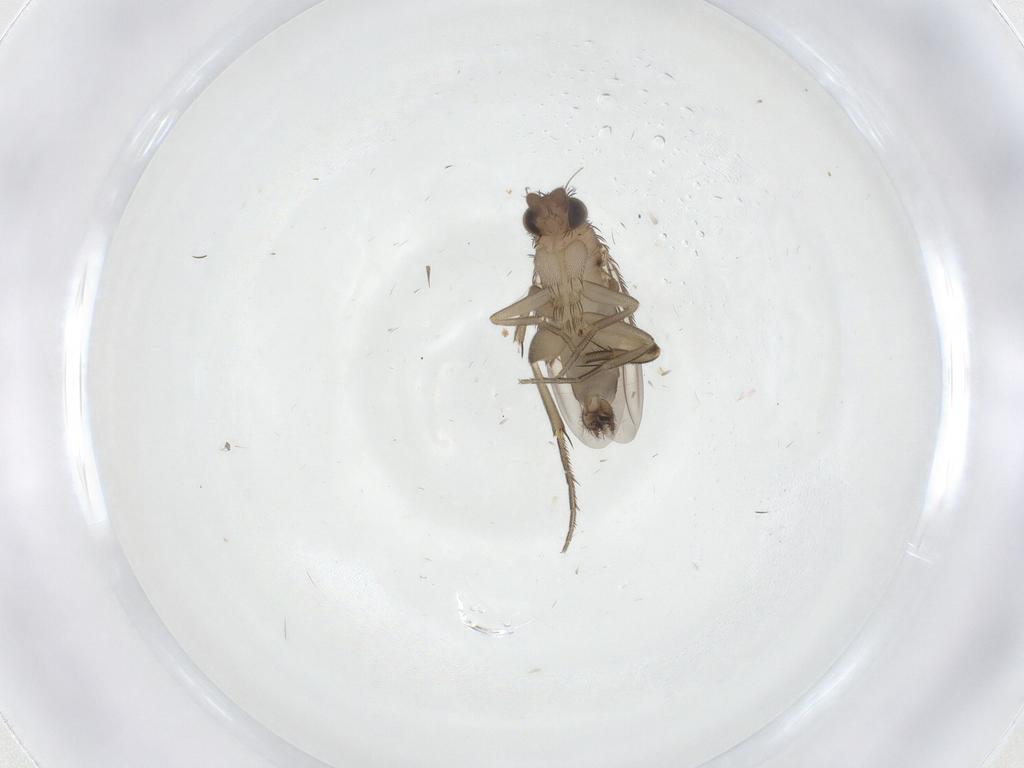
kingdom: Animalia
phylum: Arthropoda
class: Insecta
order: Diptera
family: Phoridae
